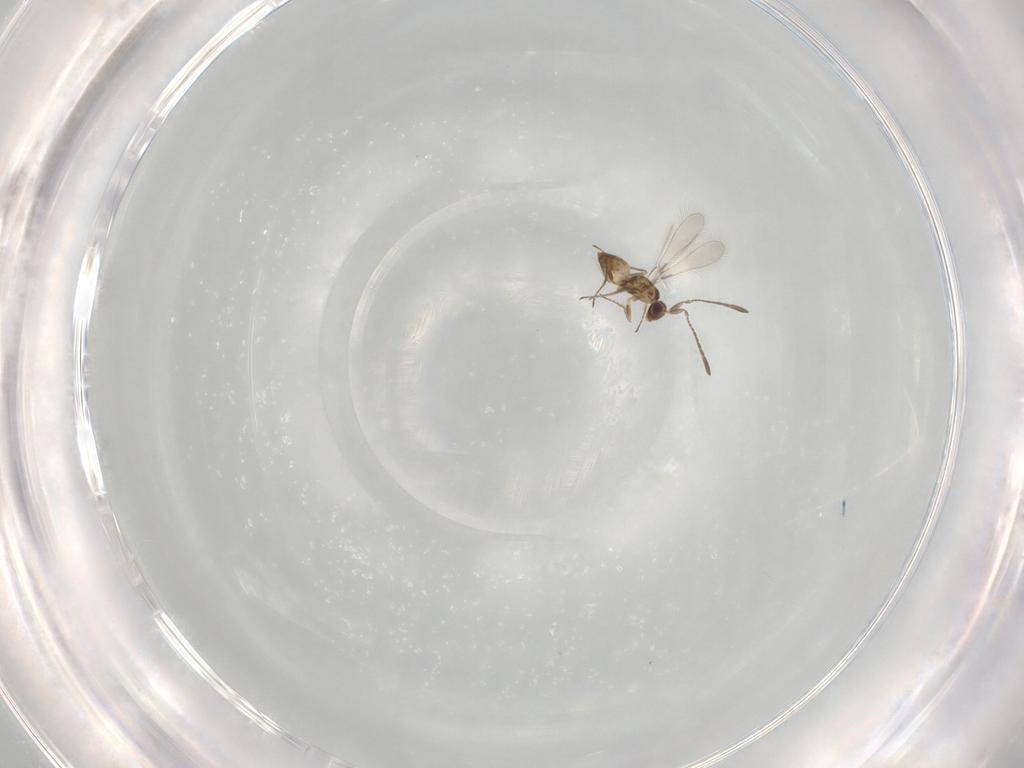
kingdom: Animalia
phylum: Arthropoda
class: Insecta
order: Hymenoptera
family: Mymaridae
